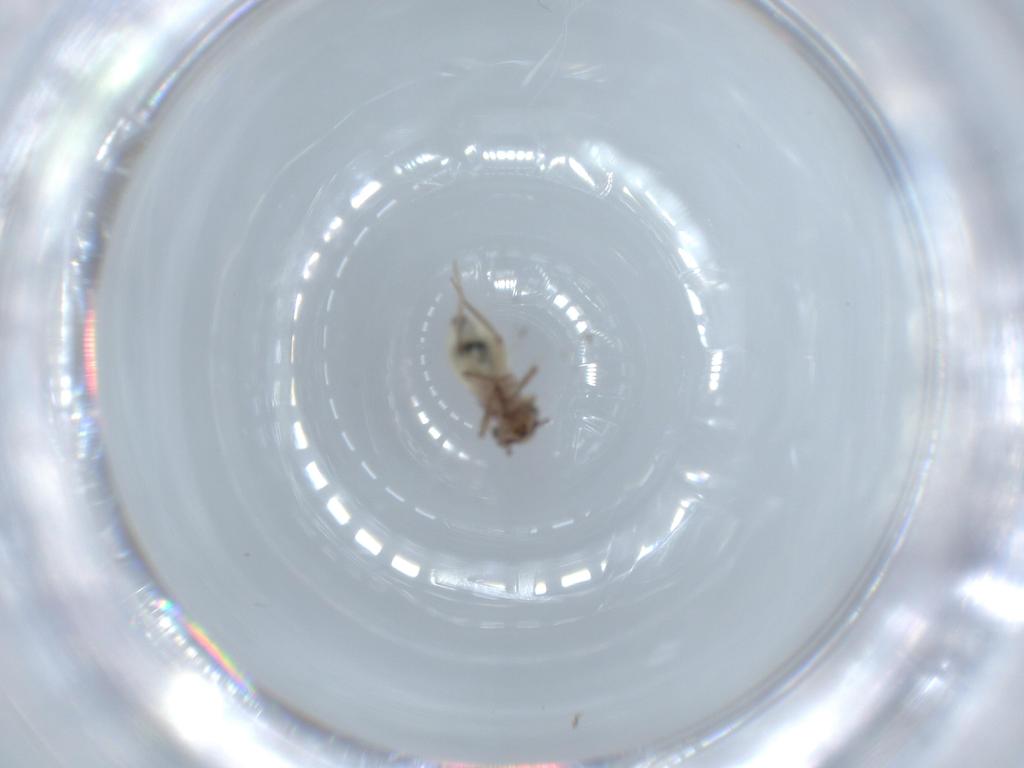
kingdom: Animalia
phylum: Arthropoda
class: Insecta
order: Psocodea
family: Lepidopsocidae
